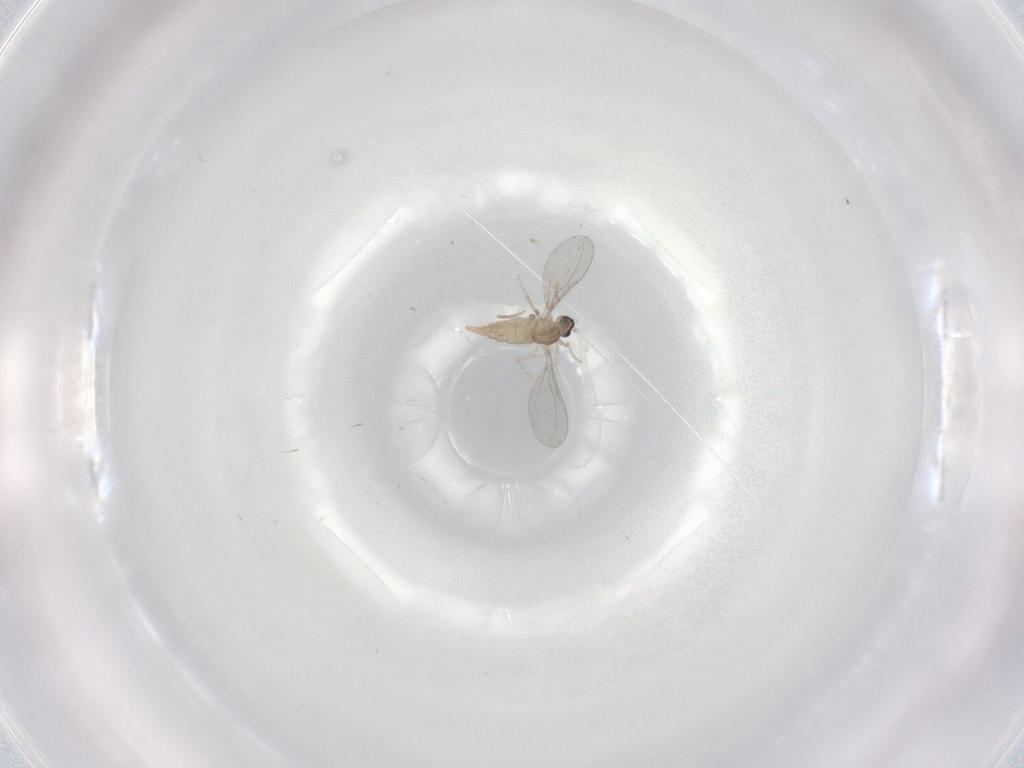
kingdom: Animalia
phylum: Arthropoda
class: Insecta
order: Diptera
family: Cecidomyiidae
